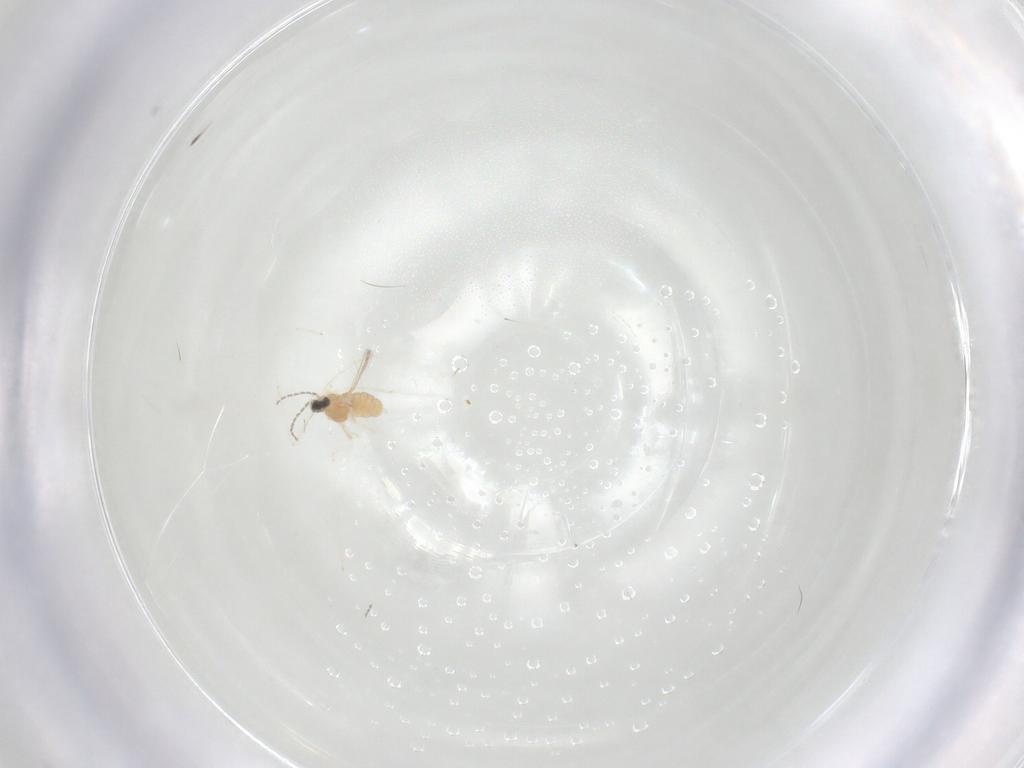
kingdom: Animalia
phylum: Arthropoda
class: Insecta
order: Diptera
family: Cecidomyiidae
